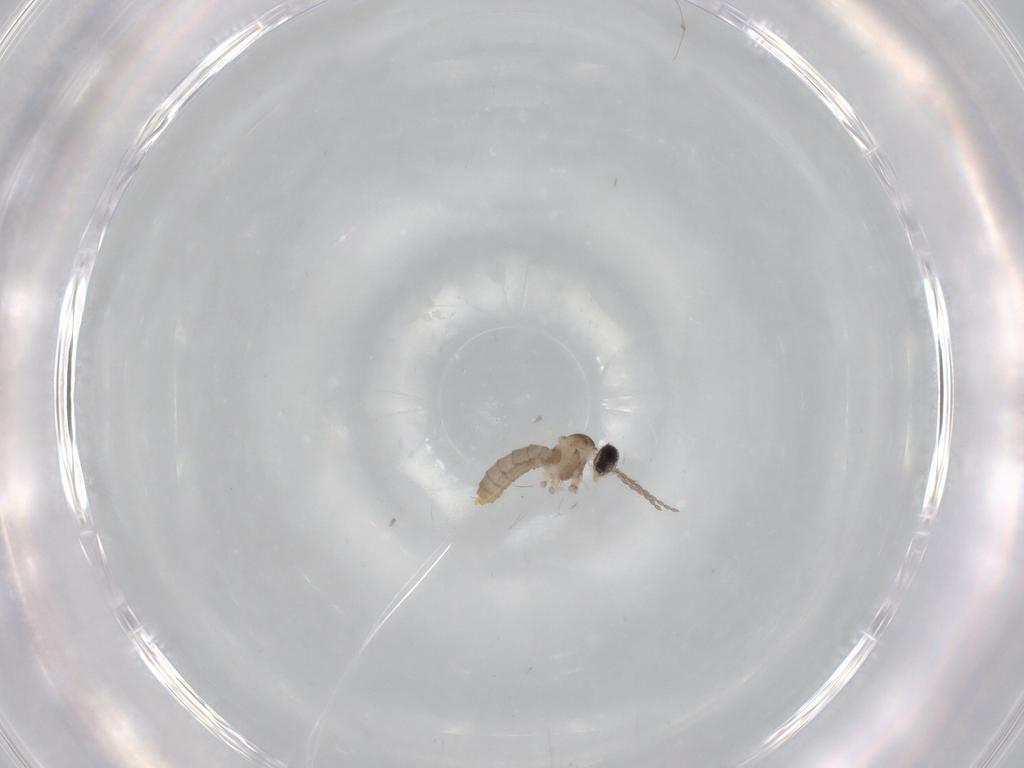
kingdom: Animalia
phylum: Arthropoda
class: Insecta
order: Diptera
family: Cecidomyiidae
